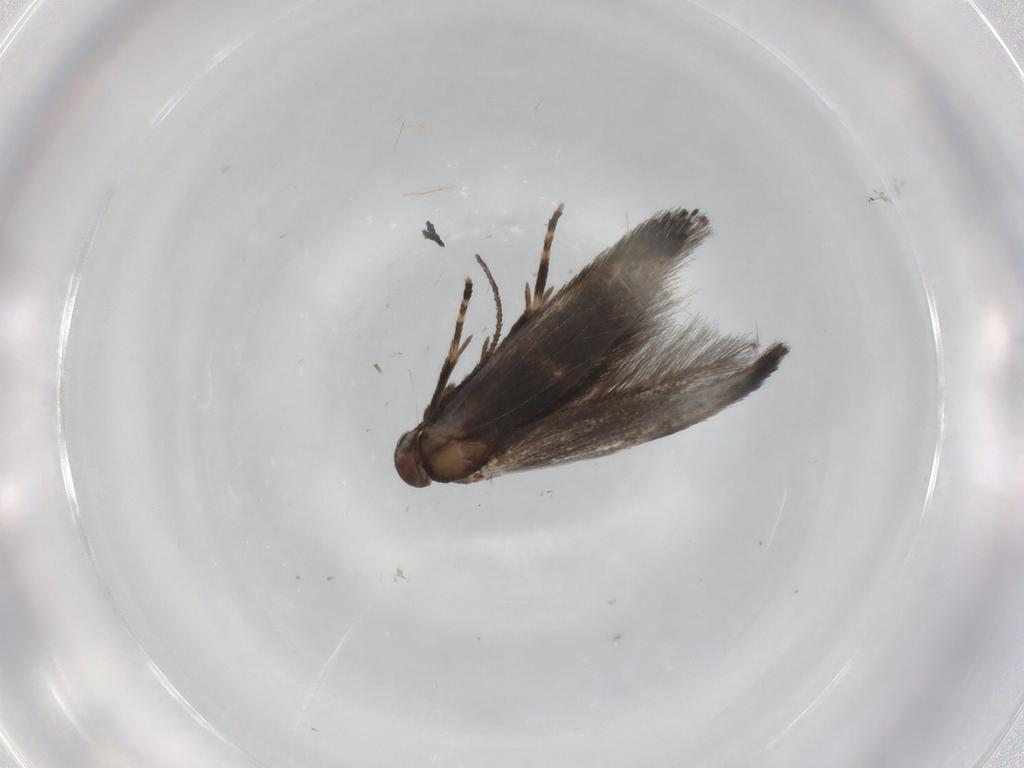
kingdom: Animalia
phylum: Arthropoda
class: Insecta
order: Lepidoptera
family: Elachistidae
